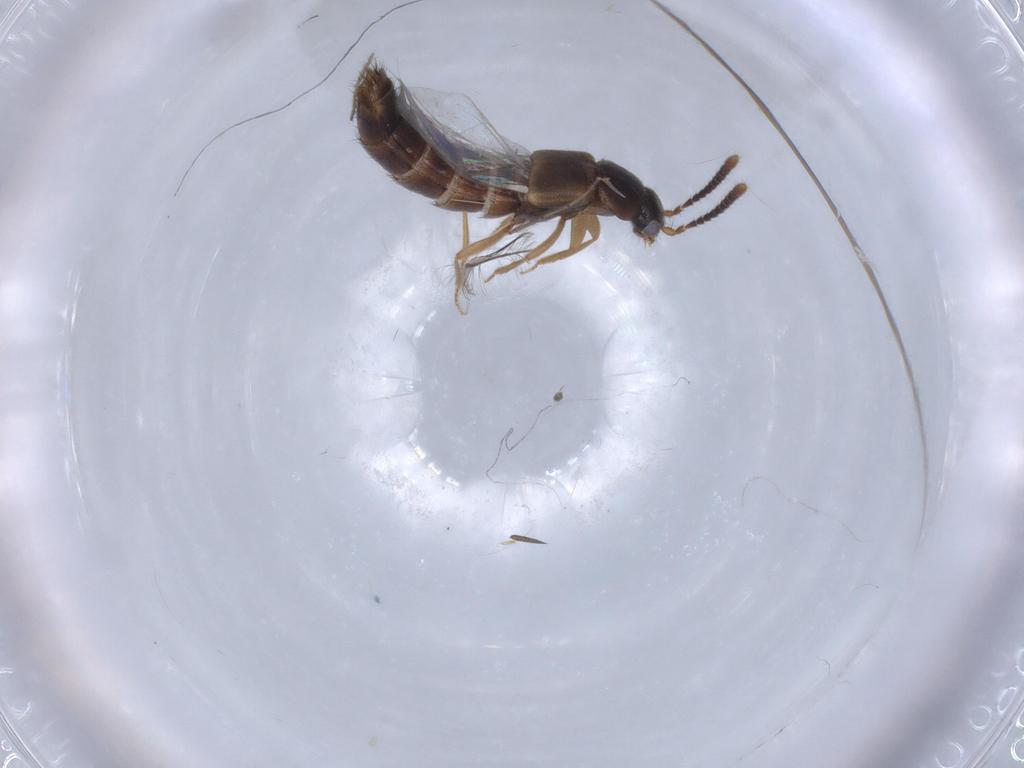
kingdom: Animalia
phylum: Arthropoda
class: Insecta
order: Coleoptera
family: Staphylinidae
